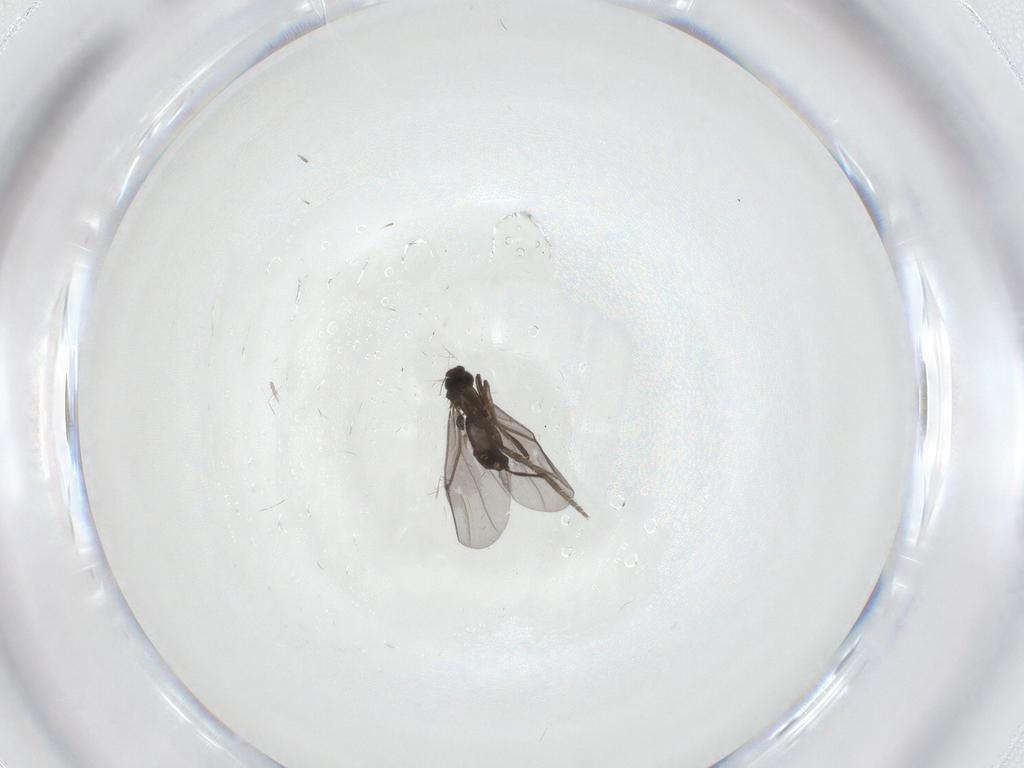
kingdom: Animalia
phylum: Arthropoda
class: Insecta
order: Diptera
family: Phoridae
